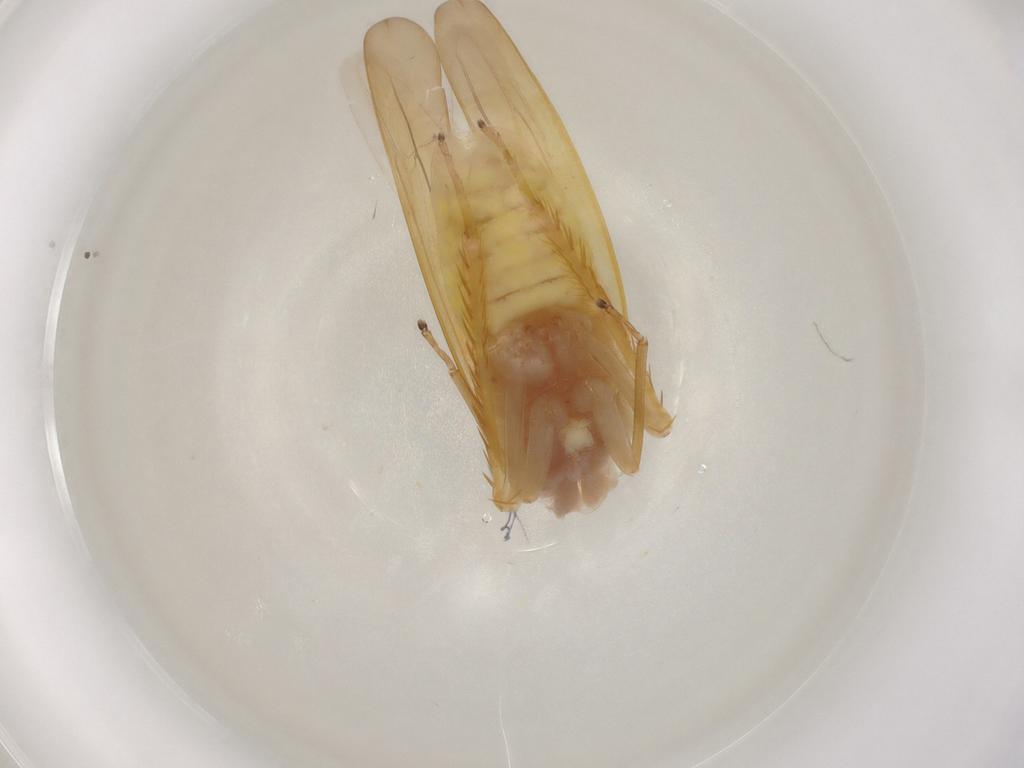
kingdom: Animalia
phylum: Arthropoda
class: Insecta
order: Hemiptera
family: Cicadellidae
